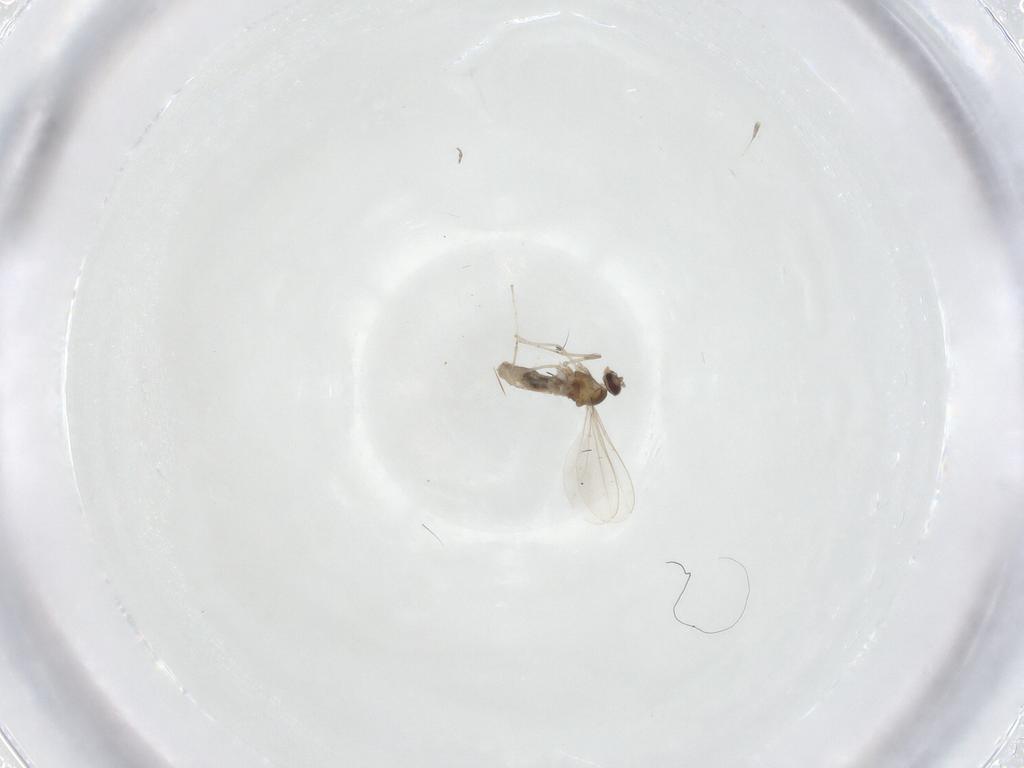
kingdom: Animalia
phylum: Arthropoda
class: Insecta
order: Diptera
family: Cecidomyiidae
